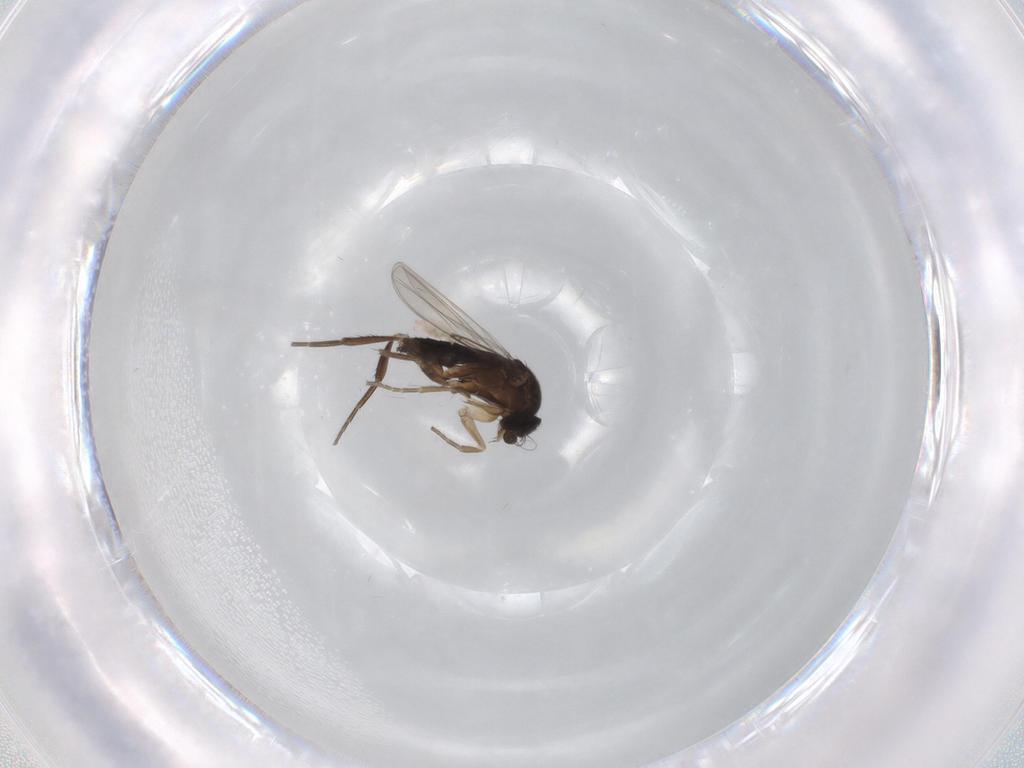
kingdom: Animalia
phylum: Arthropoda
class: Insecta
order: Diptera
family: Phoridae
